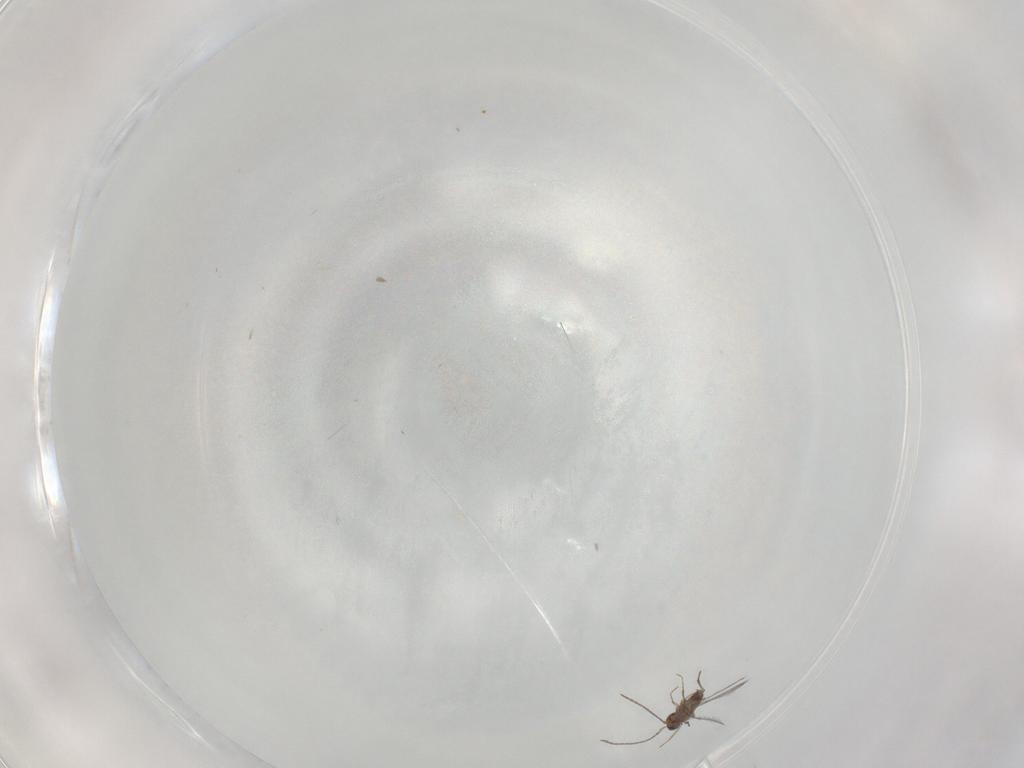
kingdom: Animalia
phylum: Arthropoda
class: Insecta
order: Hymenoptera
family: Mymaridae
